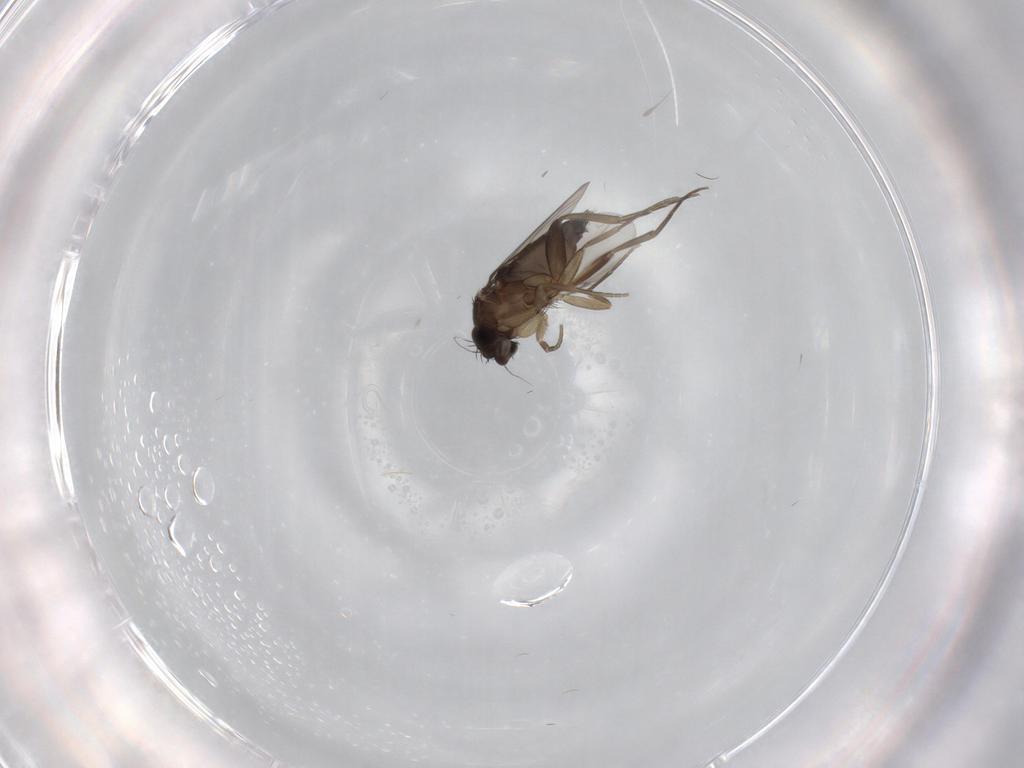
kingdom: Animalia
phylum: Arthropoda
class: Insecta
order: Diptera
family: Phoridae
